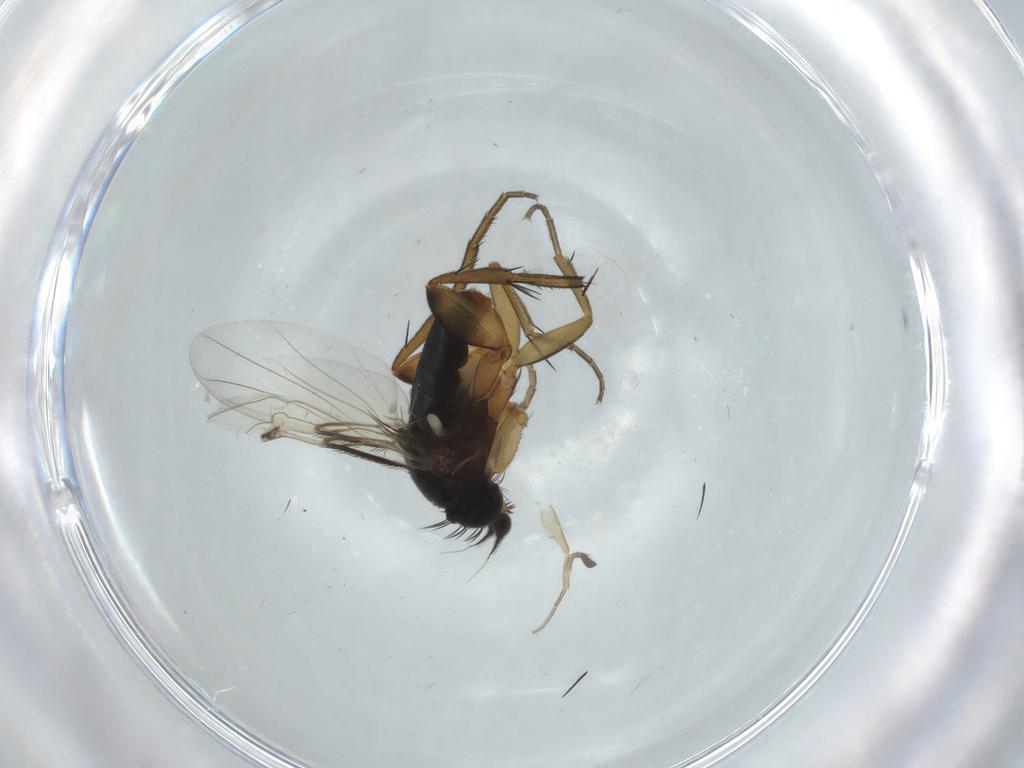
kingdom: Animalia
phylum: Arthropoda
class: Insecta
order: Diptera
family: Phoridae
